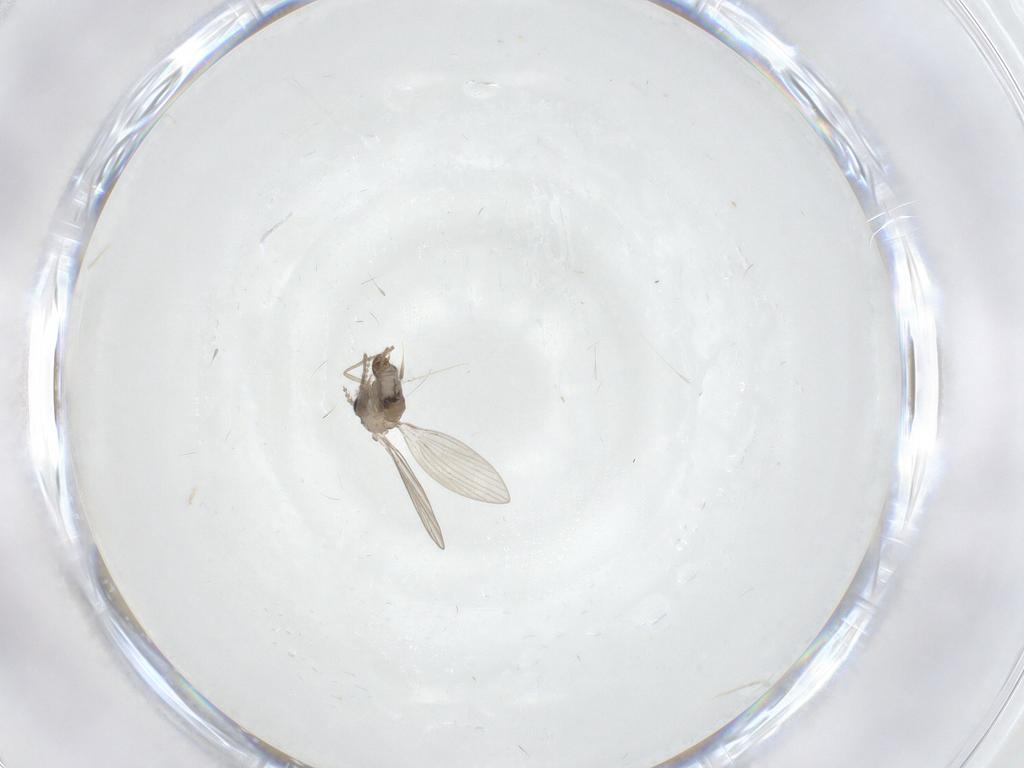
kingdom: Animalia
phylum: Arthropoda
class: Insecta
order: Diptera
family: Psychodidae
